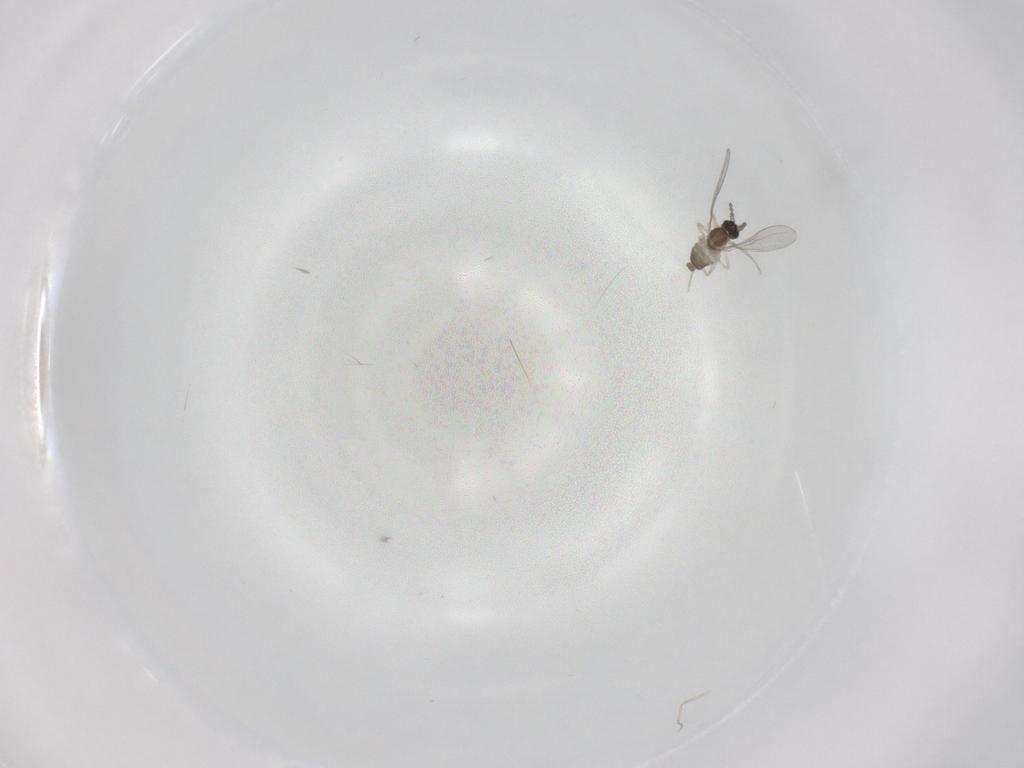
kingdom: Animalia
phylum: Arthropoda
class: Insecta
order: Diptera
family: Cecidomyiidae
